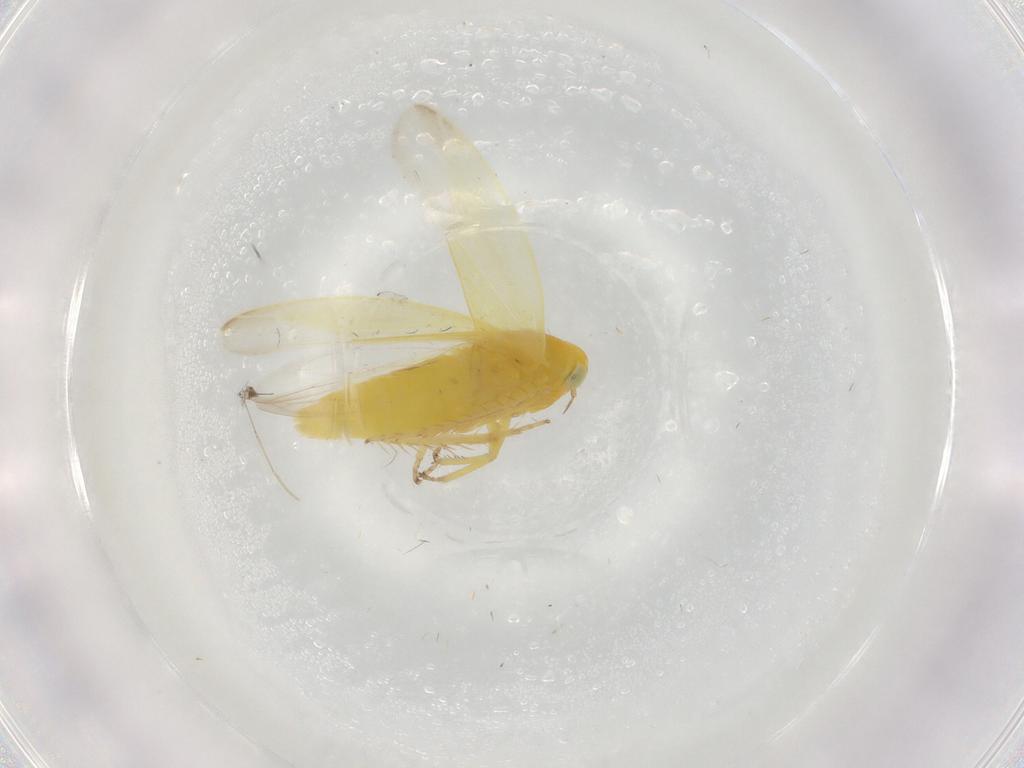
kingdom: Animalia
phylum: Arthropoda
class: Insecta
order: Hemiptera
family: Cicadellidae
